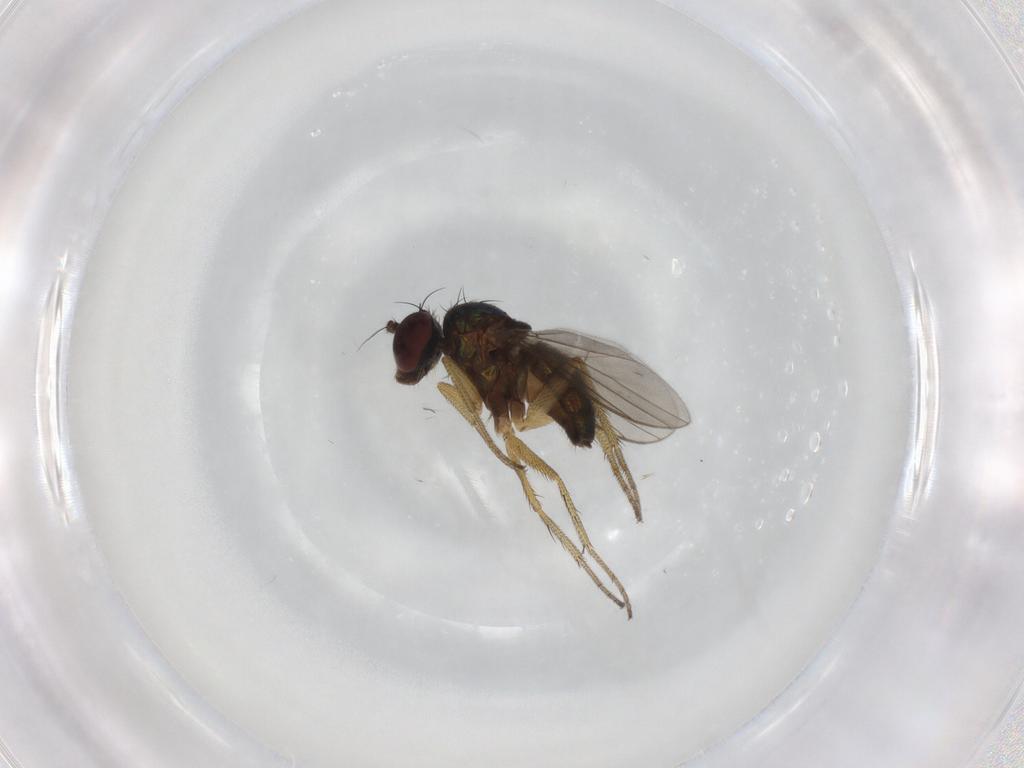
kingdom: Animalia
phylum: Arthropoda
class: Insecta
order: Diptera
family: Dolichopodidae
